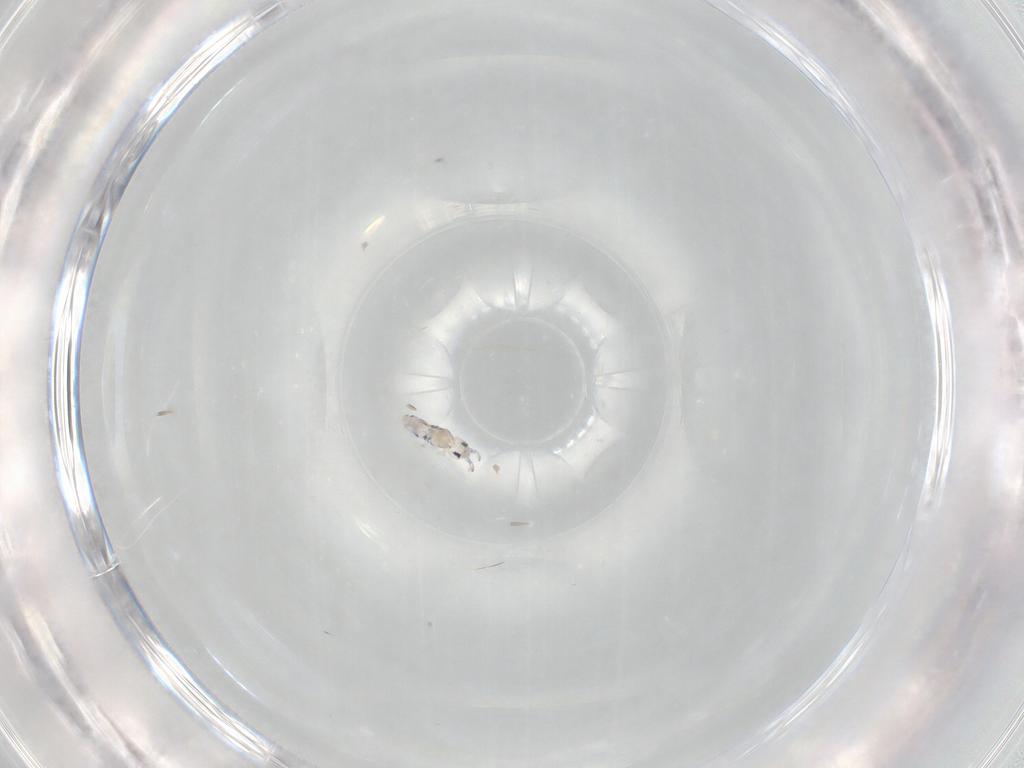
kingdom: Animalia
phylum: Arthropoda
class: Collembola
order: Entomobryomorpha
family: Entomobryidae
